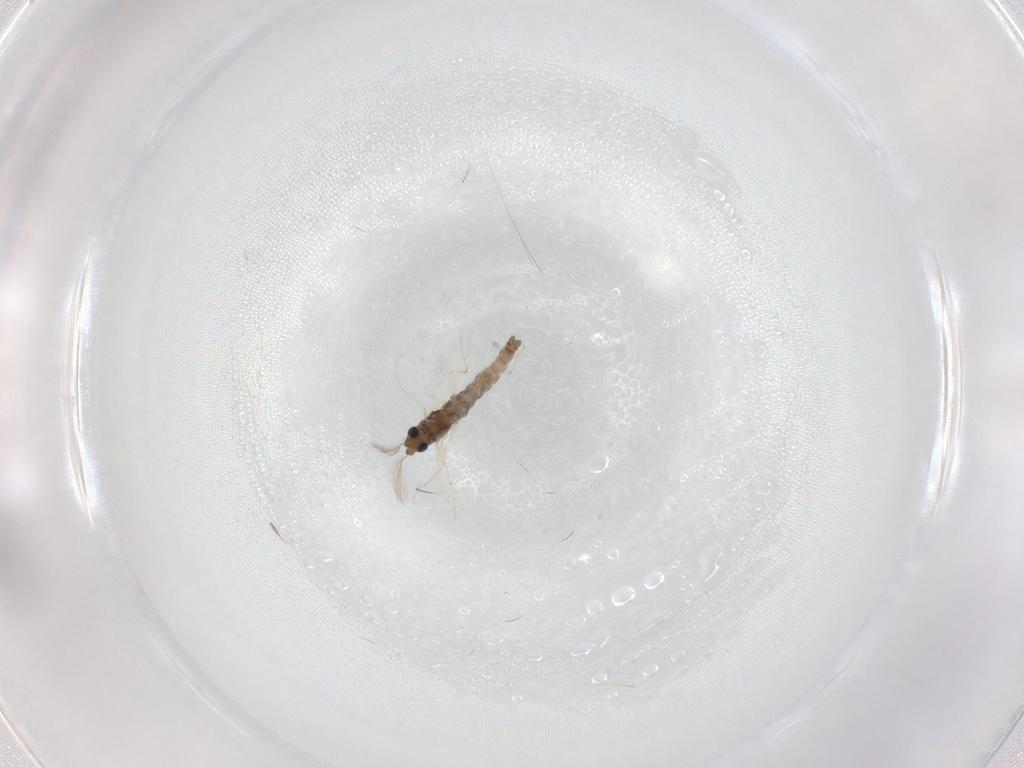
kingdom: Animalia
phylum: Arthropoda
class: Insecta
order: Diptera
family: Chironomidae
